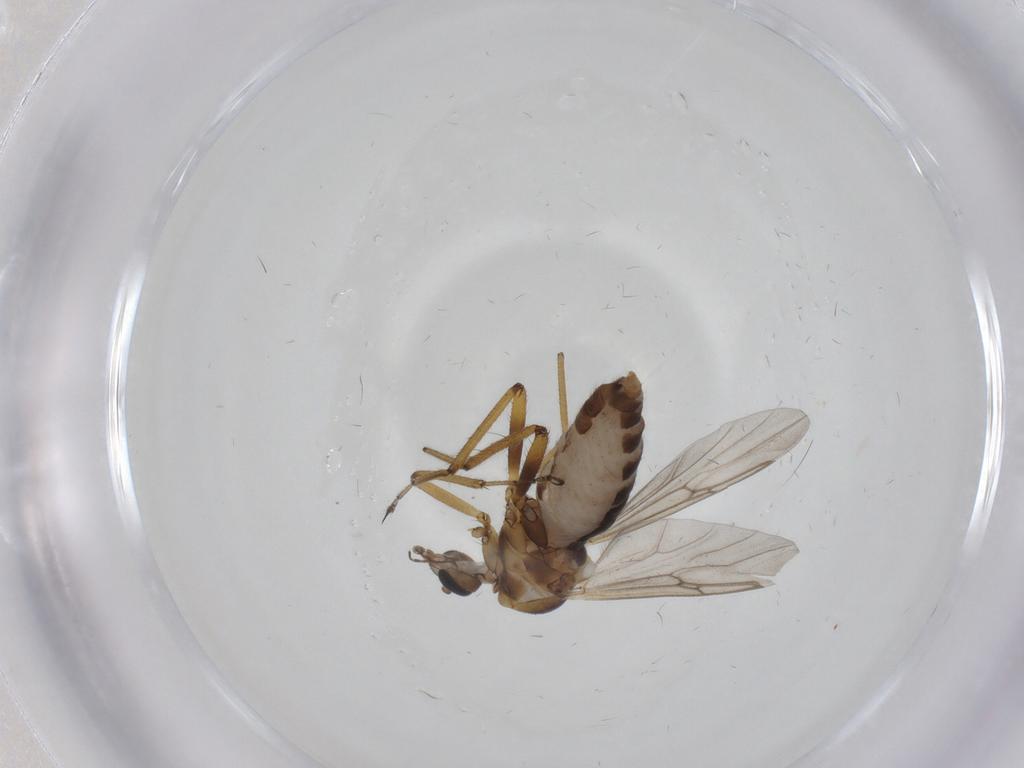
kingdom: Animalia
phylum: Arthropoda
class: Insecta
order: Diptera
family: Ceratopogonidae
